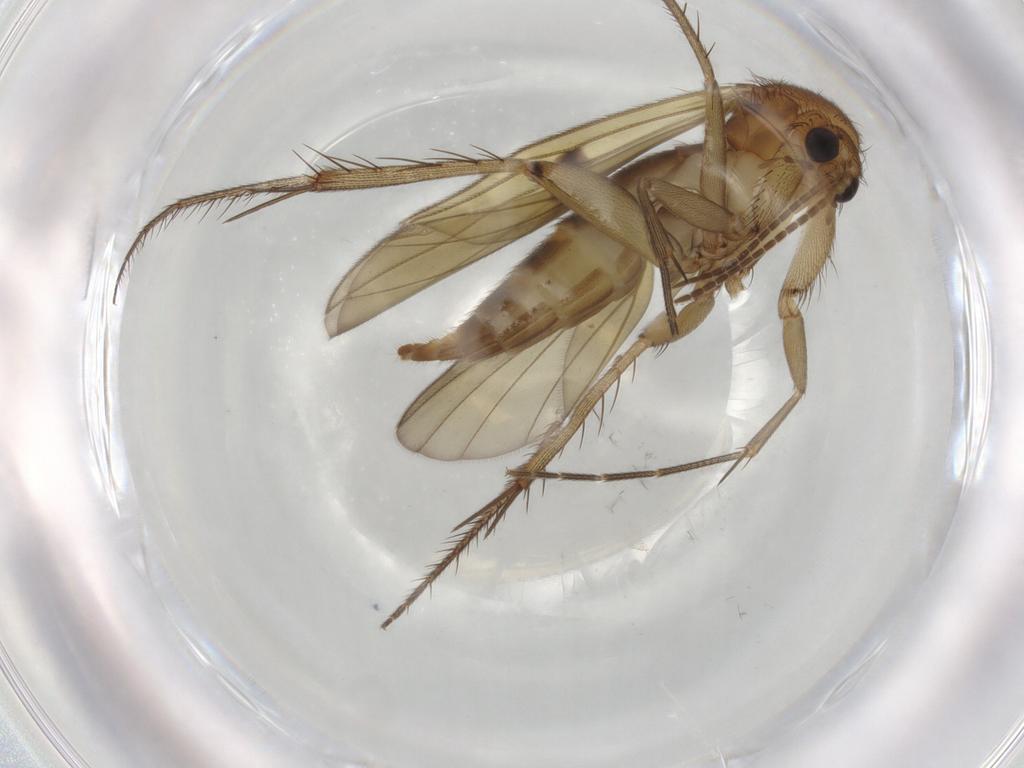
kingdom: Animalia
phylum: Arthropoda
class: Insecta
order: Diptera
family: Mycetophilidae
